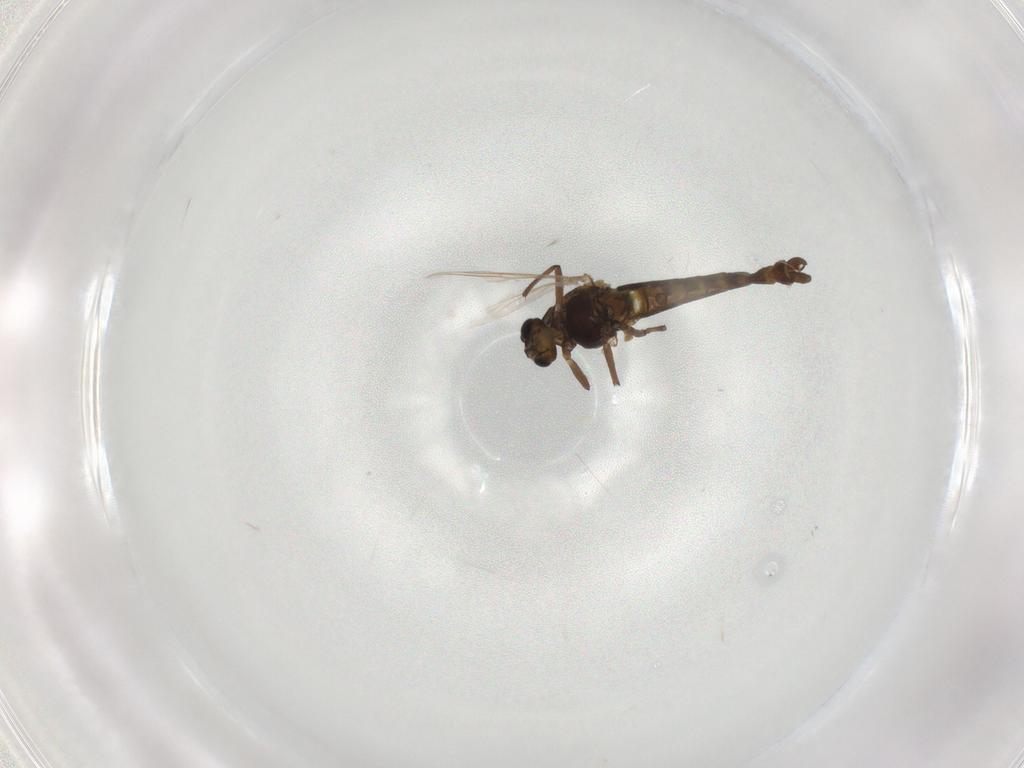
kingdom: Animalia
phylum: Arthropoda
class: Insecta
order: Diptera
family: Chironomidae
